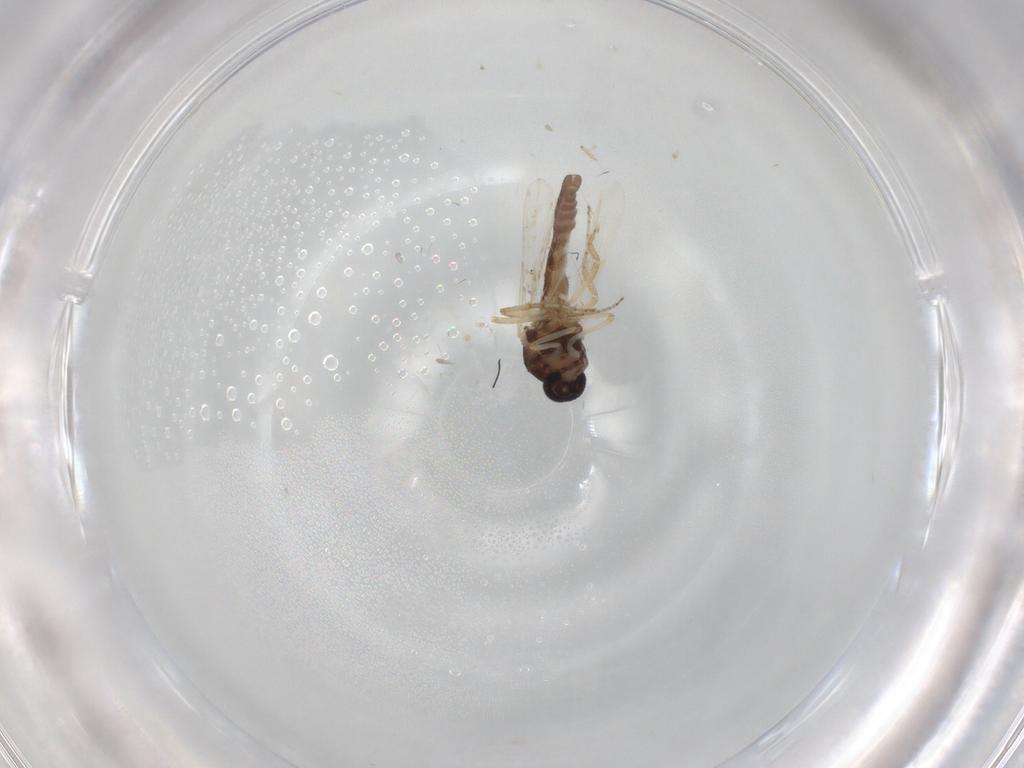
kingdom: Animalia
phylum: Arthropoda
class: Insecta
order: Diptera
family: Ceratopogonidae
